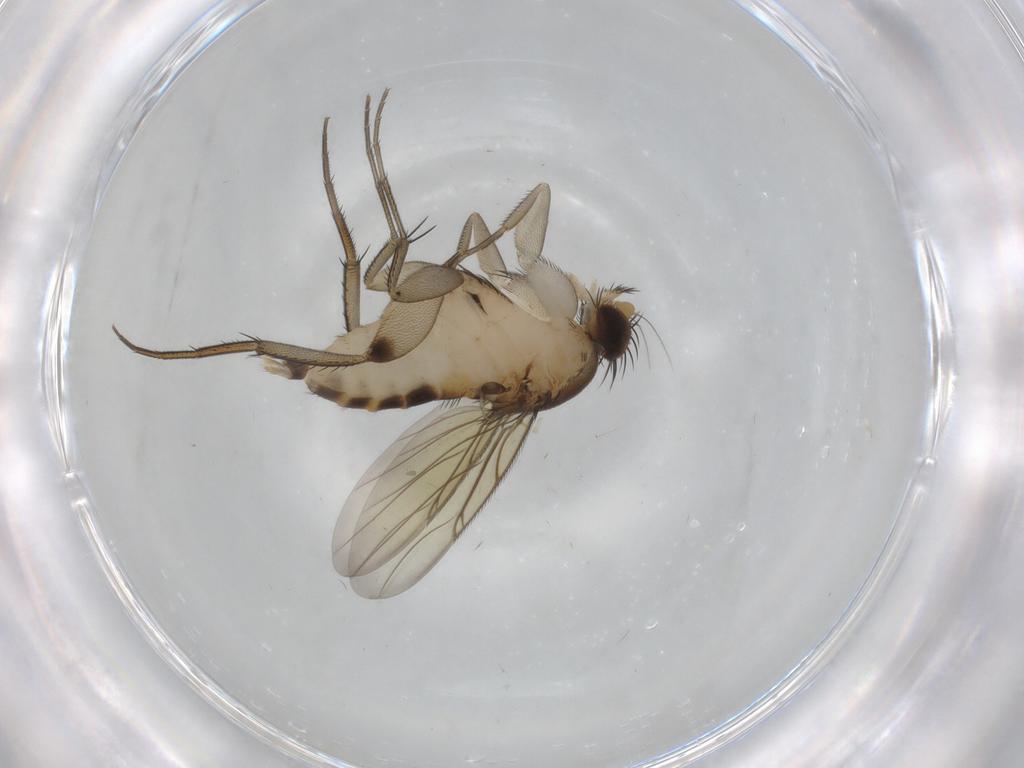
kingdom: Animalia
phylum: Arthropoda
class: Insecta
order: Diptera
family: Phoridae
